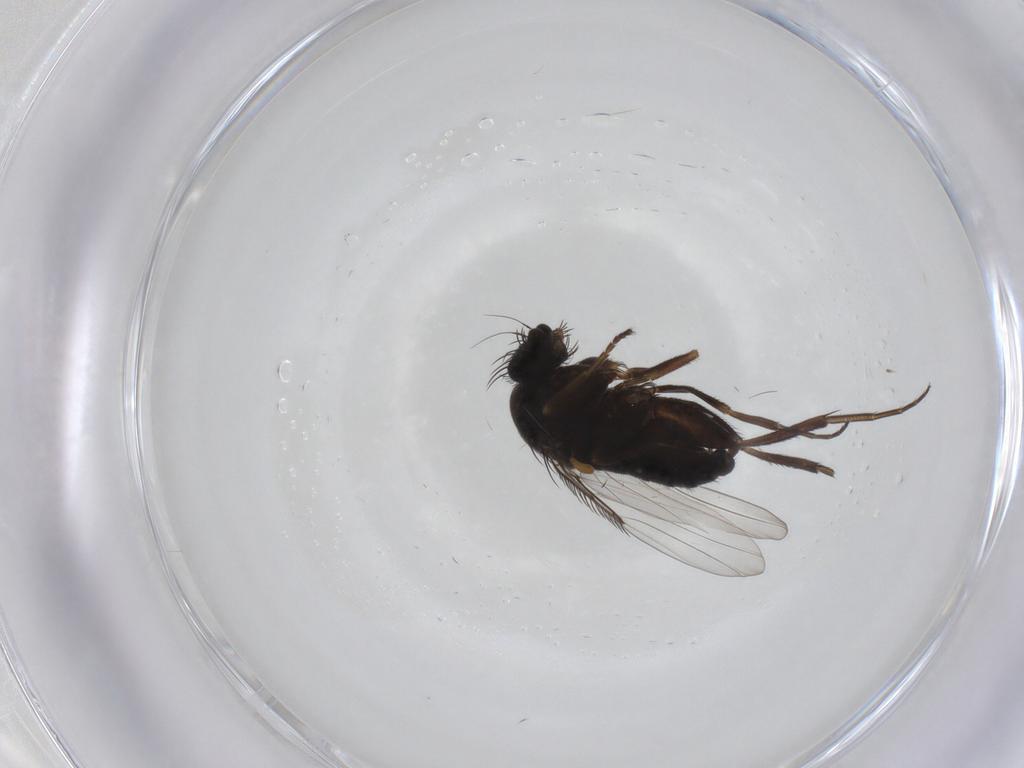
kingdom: Animalia
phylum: Arthropoda
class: Insecta
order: Diptera
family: Phoridae
